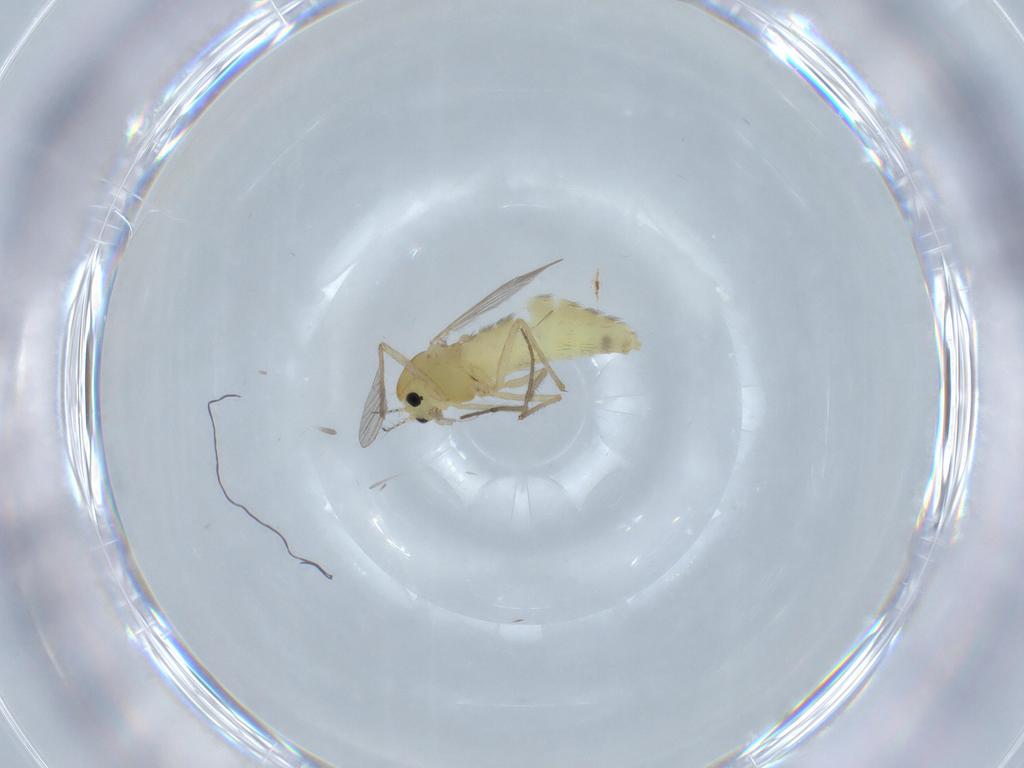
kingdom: Animalia
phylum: Arthropoda
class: Insecta
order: Diptera
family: Chironomidae
